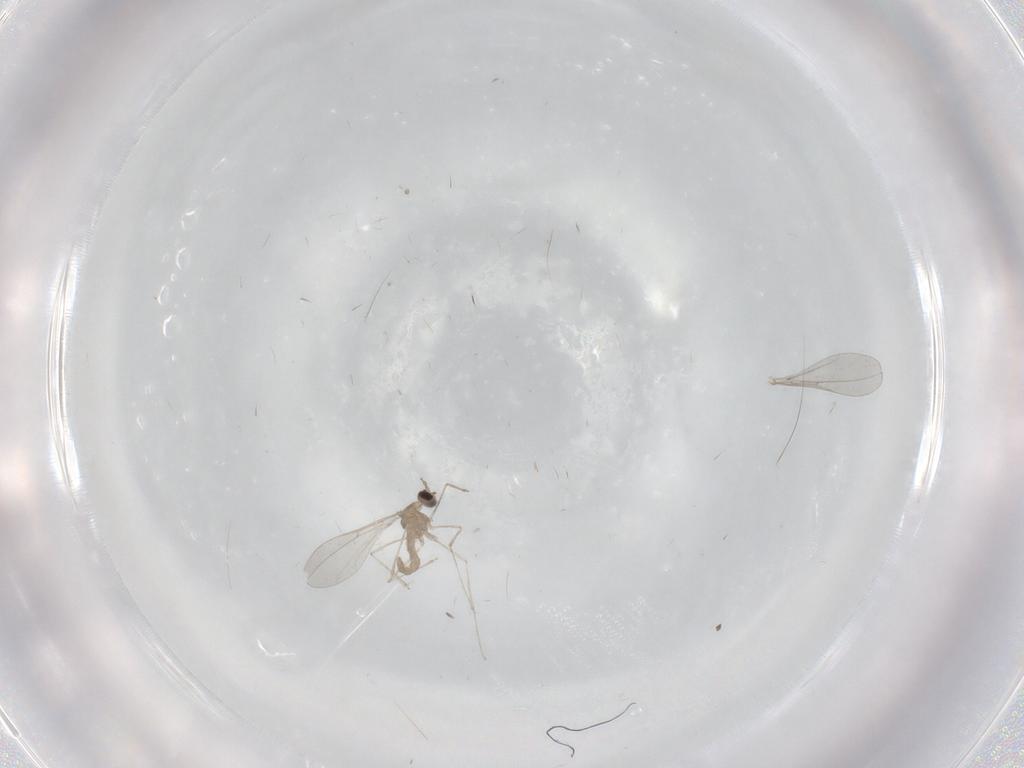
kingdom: Animalia
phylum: Arthropoda
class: Insecta
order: Diptera
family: Cecidomyiidae
